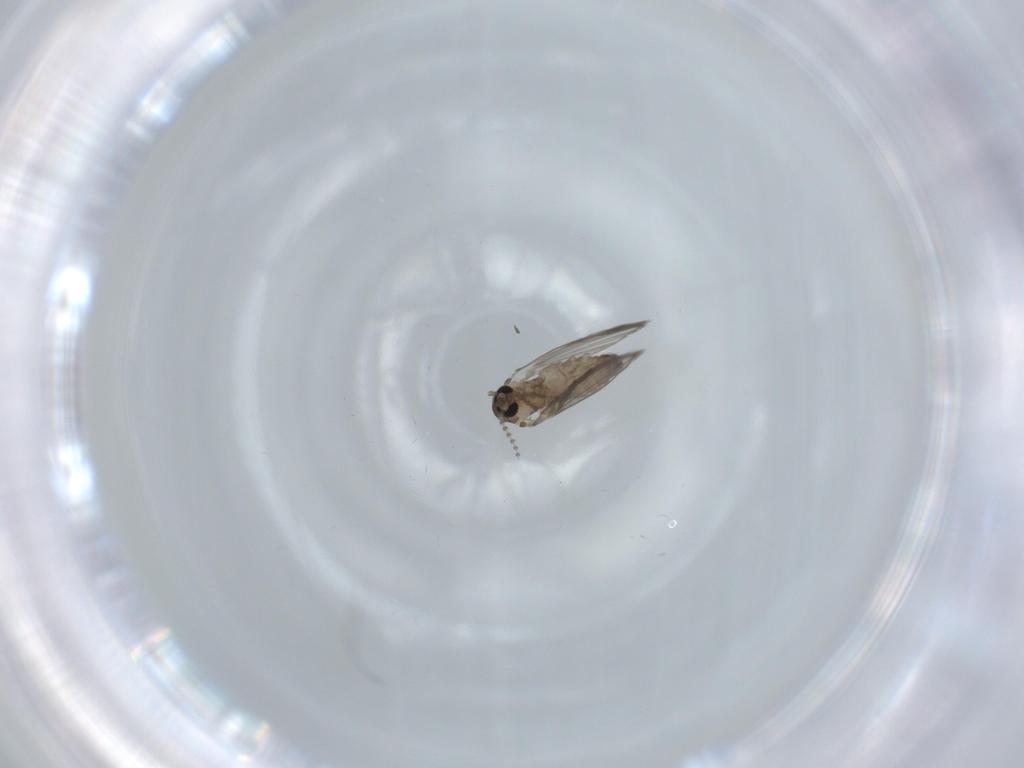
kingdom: Animalia
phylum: Arthropoda
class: Insecta
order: Diptera
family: Psychodidae
